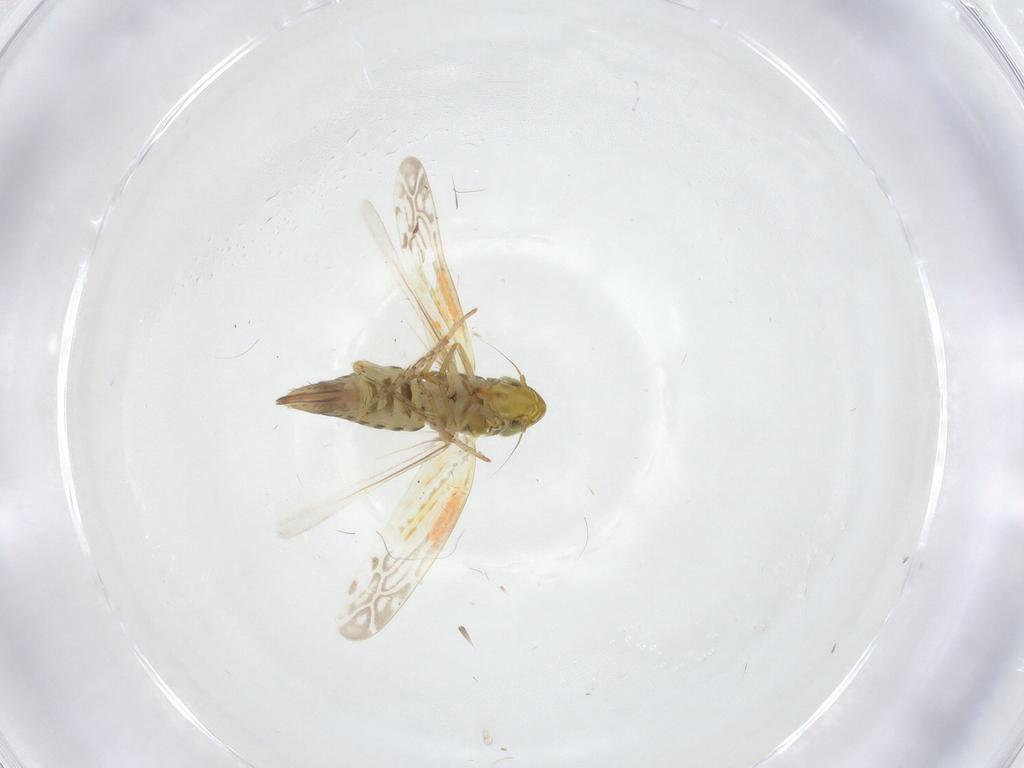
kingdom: Animalia
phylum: Arthropoda
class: Insecta
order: Hemiptera
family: Cicadellidae
